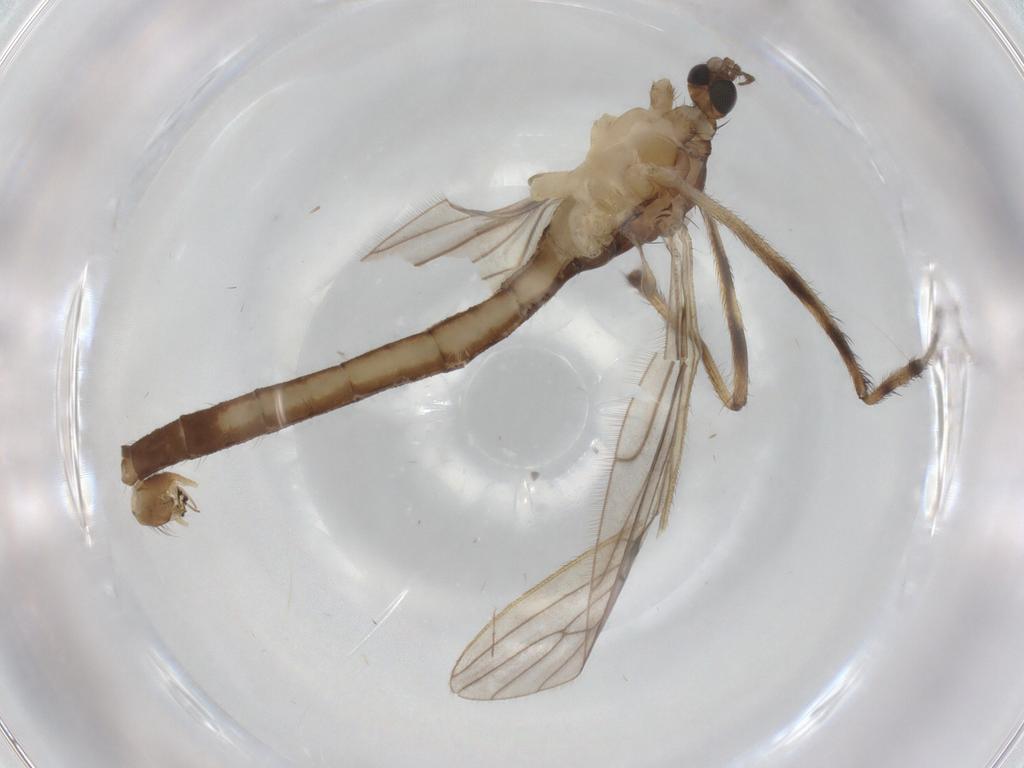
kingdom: Animalia
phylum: Arthropoda
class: Insecta
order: Diptera
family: Limoniidae
